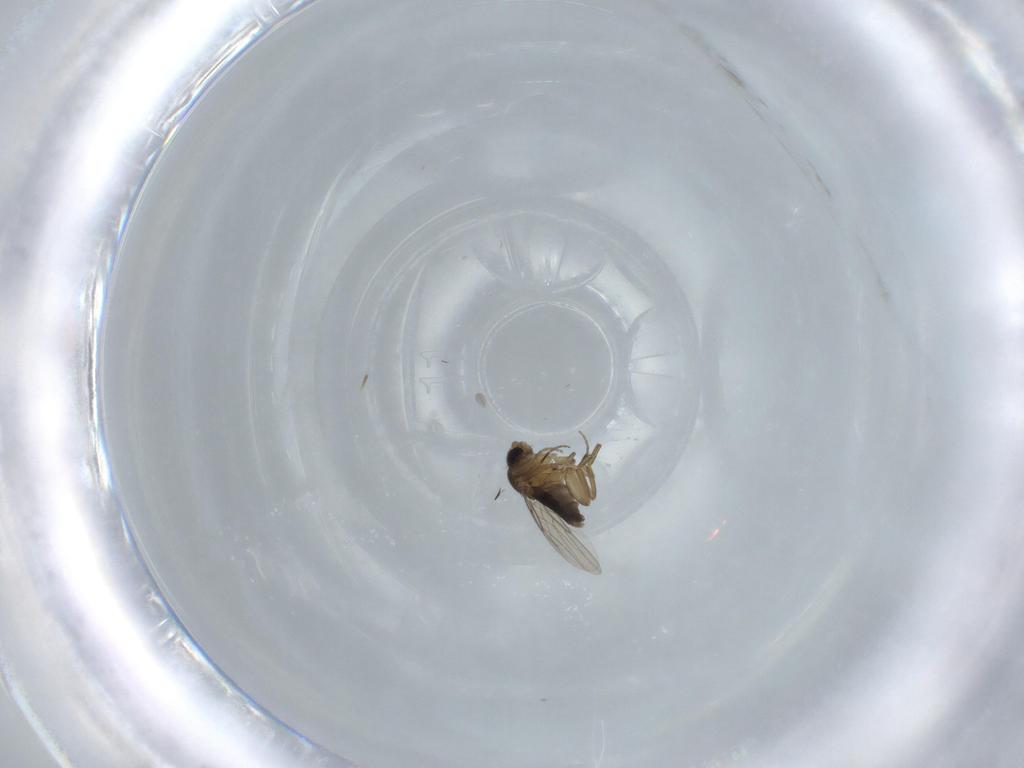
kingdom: Animalia
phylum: Arthropoda
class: Insecta
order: Diptera
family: Phoridae
